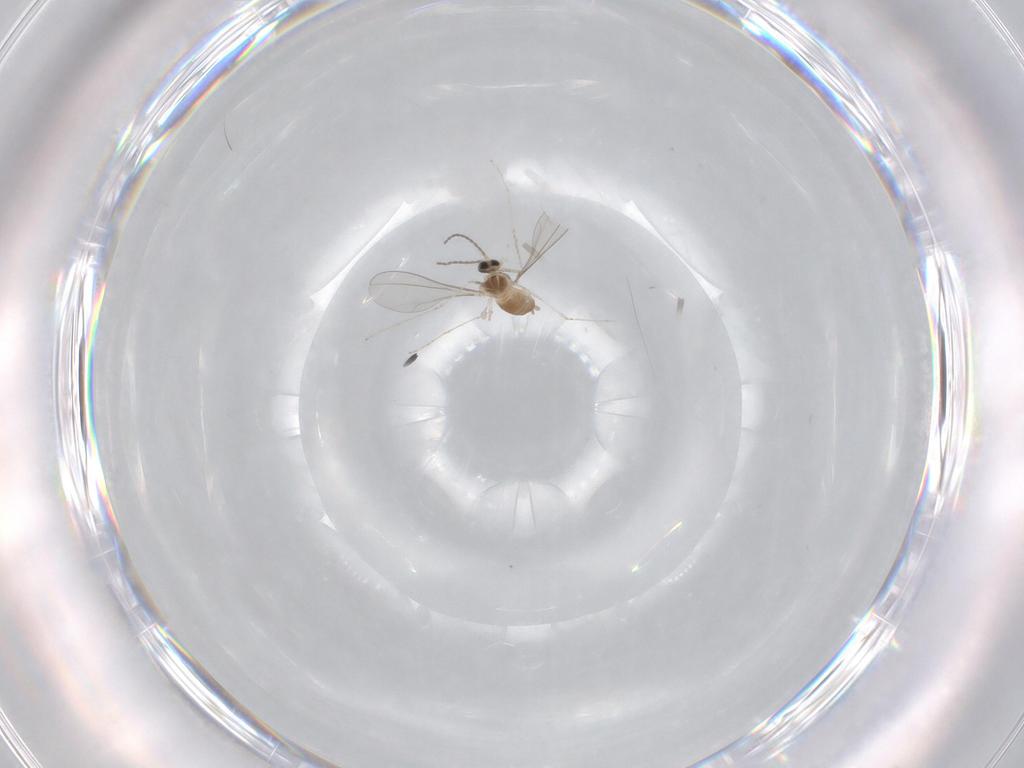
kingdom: Animalia
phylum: Arthropoda
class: Insecta
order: Diptera
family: Cecidomyiidae
